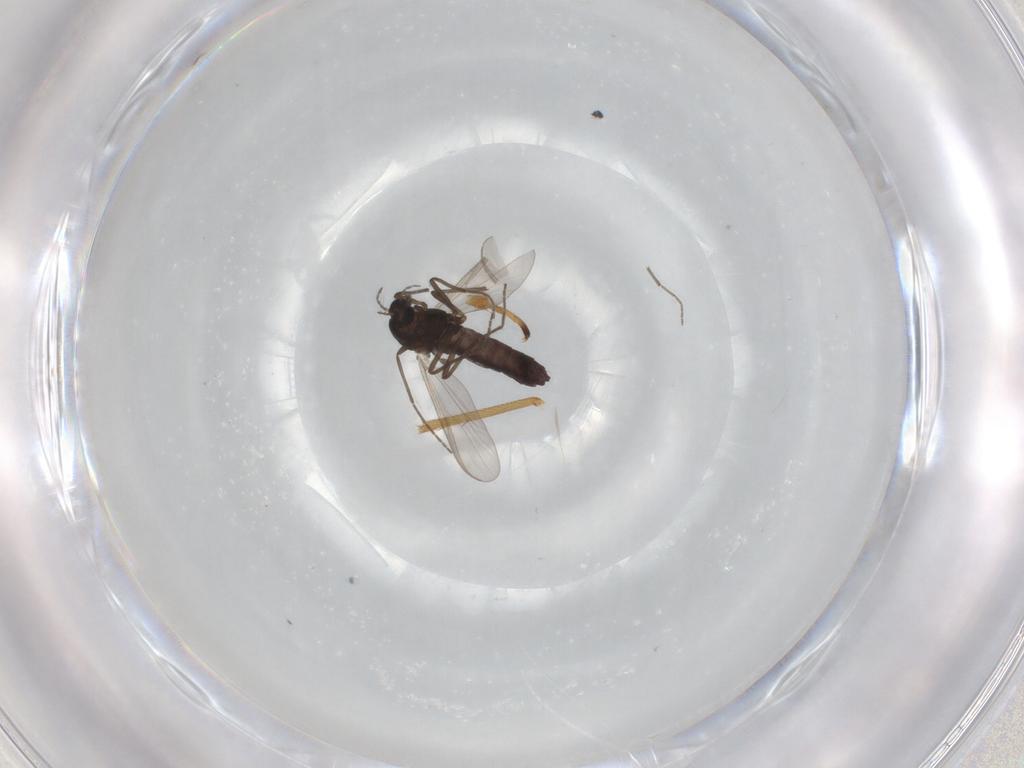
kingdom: Animalia
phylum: Arthropoda
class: Insecta
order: Diptera
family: Chironomidae
